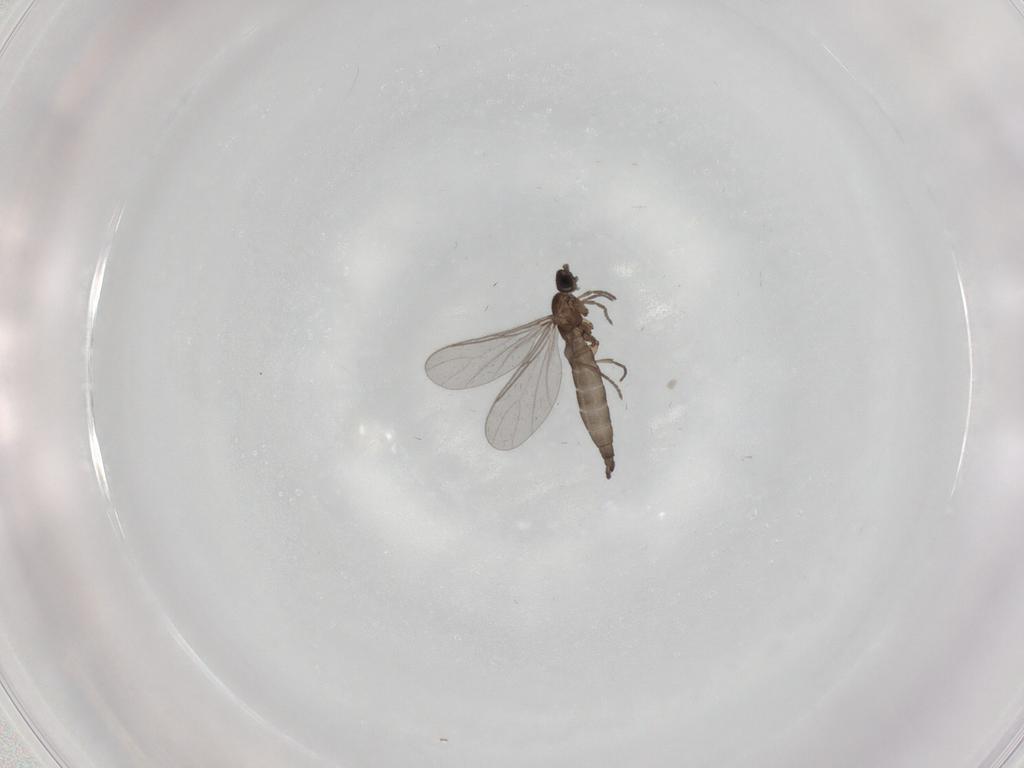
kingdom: Animalia
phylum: Arthropoda
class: Insecta
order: Diptera
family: Sciaridae
